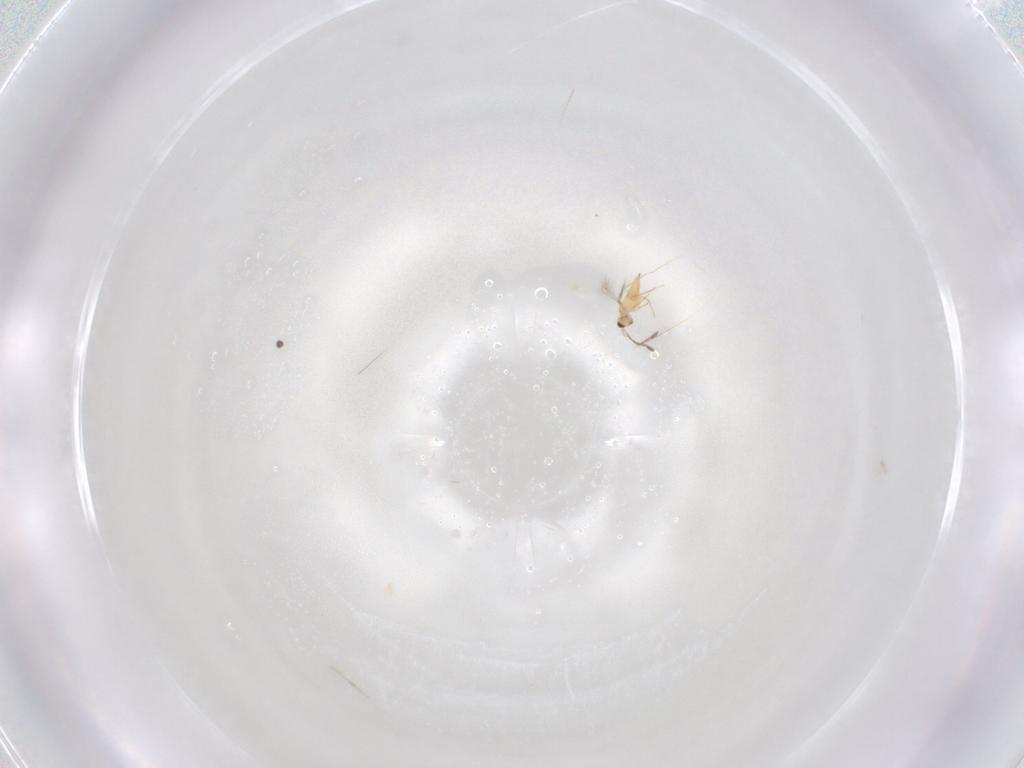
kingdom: Animalia
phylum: Arthropoda
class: Insecta
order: Hymenoptera
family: Mymaridae
